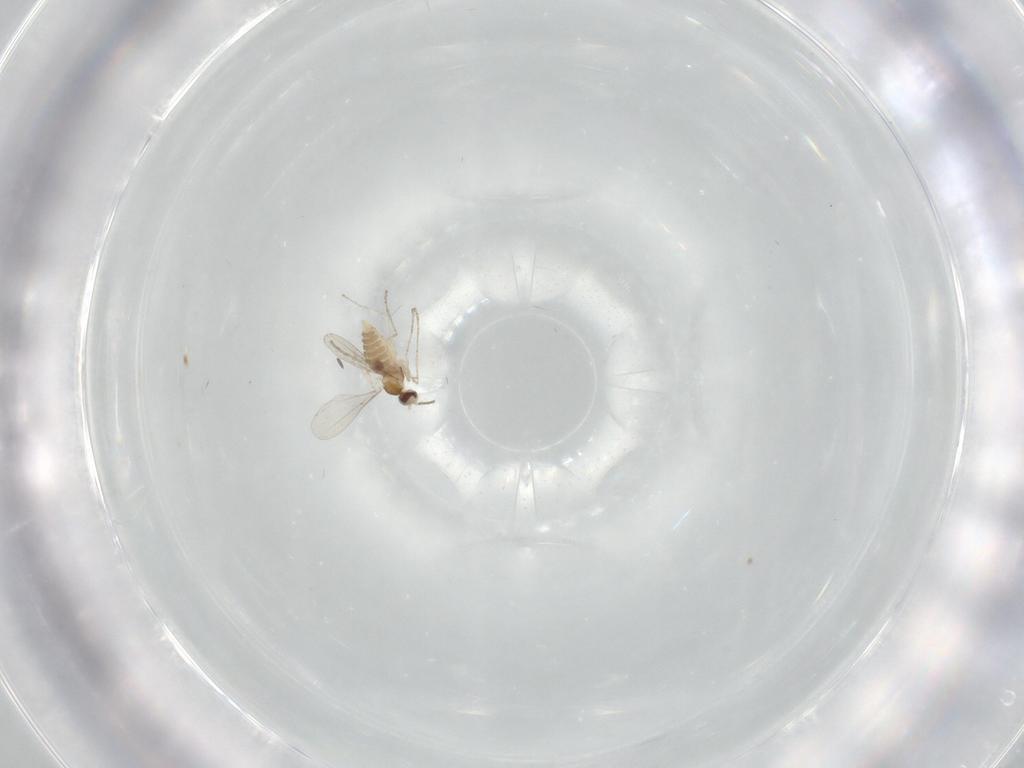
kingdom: Animalia
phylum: Arthropoda
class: Insecta
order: Diptera
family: Cecidomyiidae
